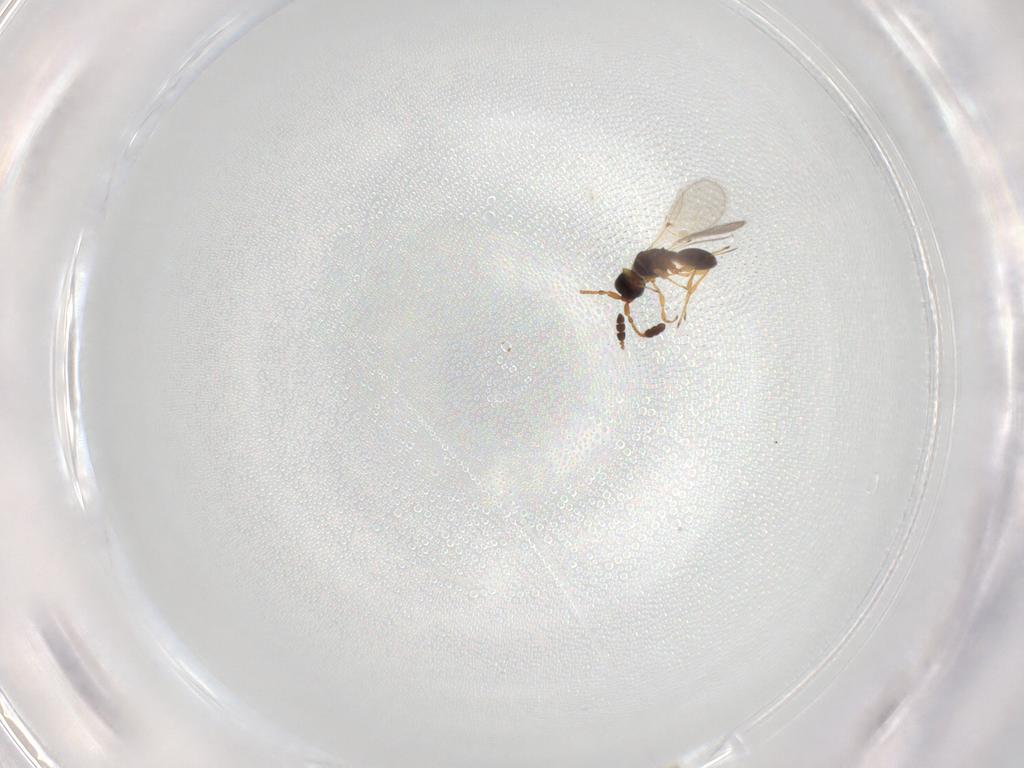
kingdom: Animalia
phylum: Arthropoda
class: Insecta
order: Hymenoptera
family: Diapriidae
